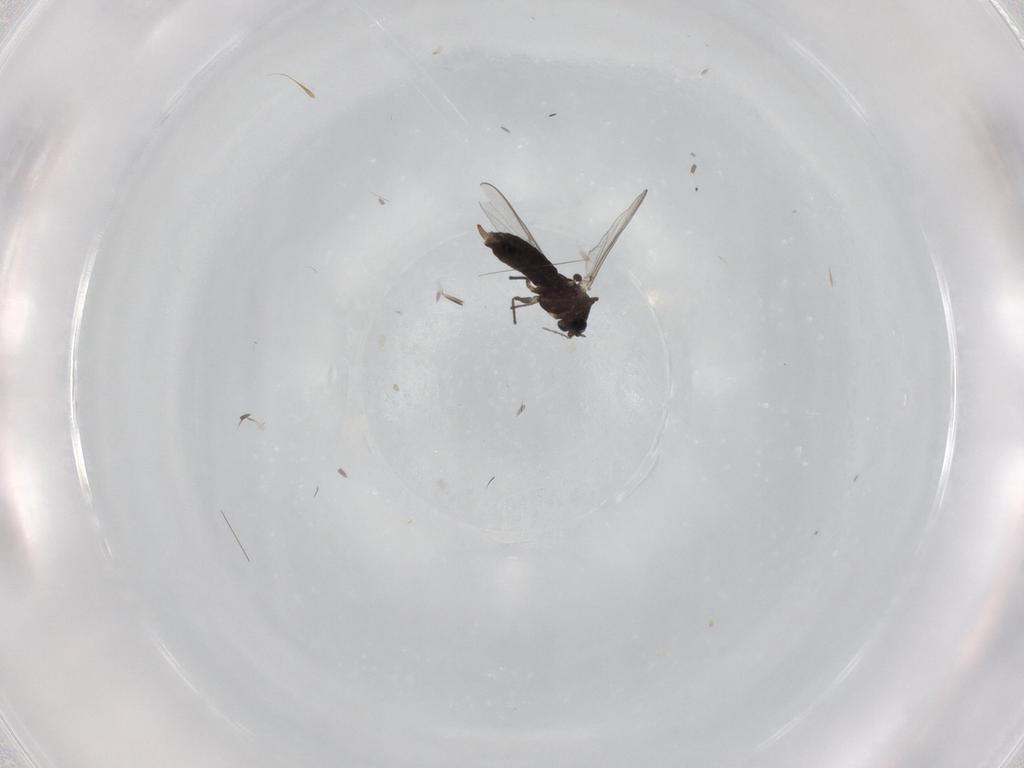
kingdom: Animalia
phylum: Arthropoda
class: Insecta
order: Diptera
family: Chironomidae
